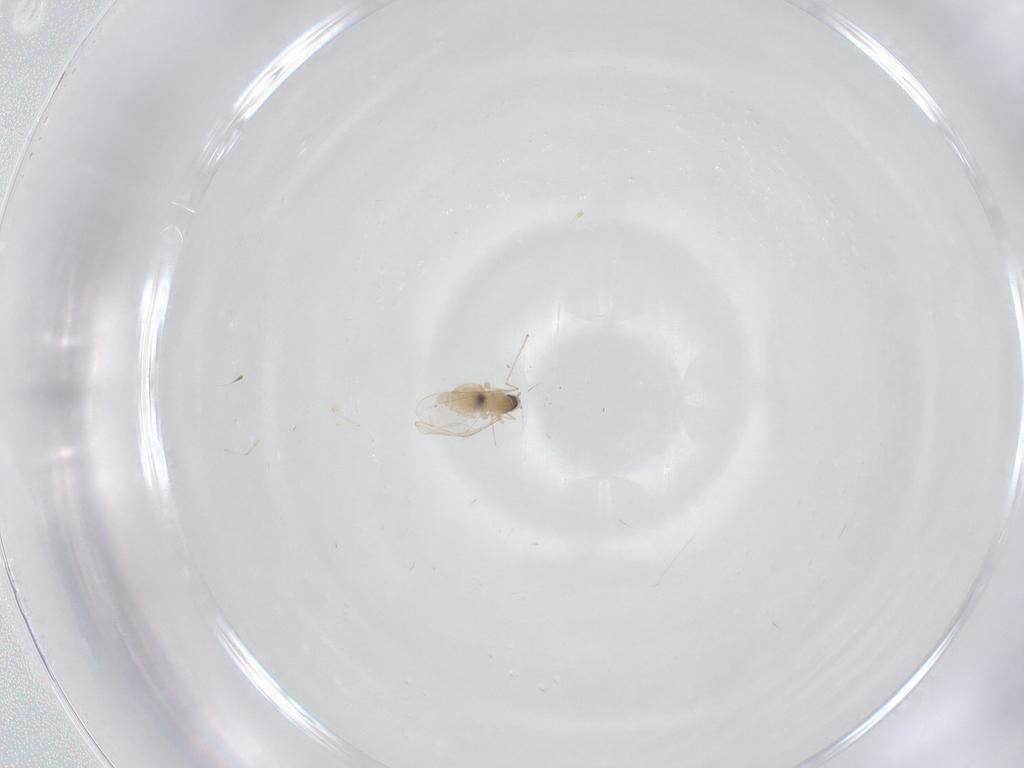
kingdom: Animalia
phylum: Arthropoda
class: Insecta
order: Diptera
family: Cecidomyiidae
